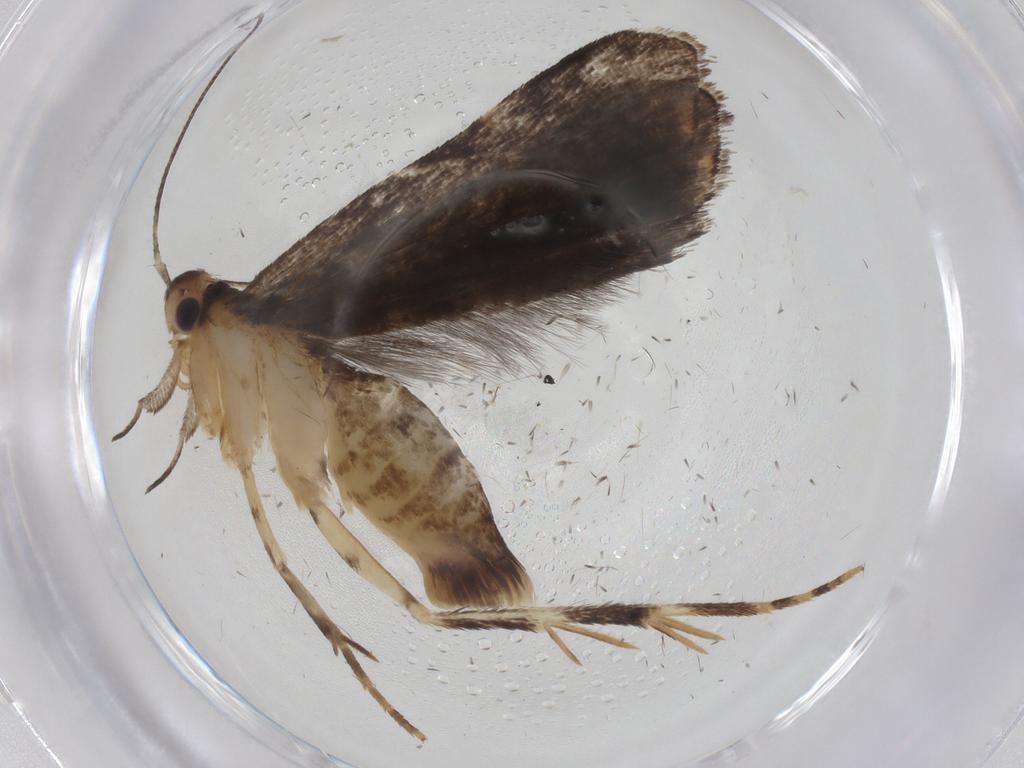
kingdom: Animalia
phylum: Arthropoda
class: Insecta
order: Lepidoptera
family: Cosmopterigidae
